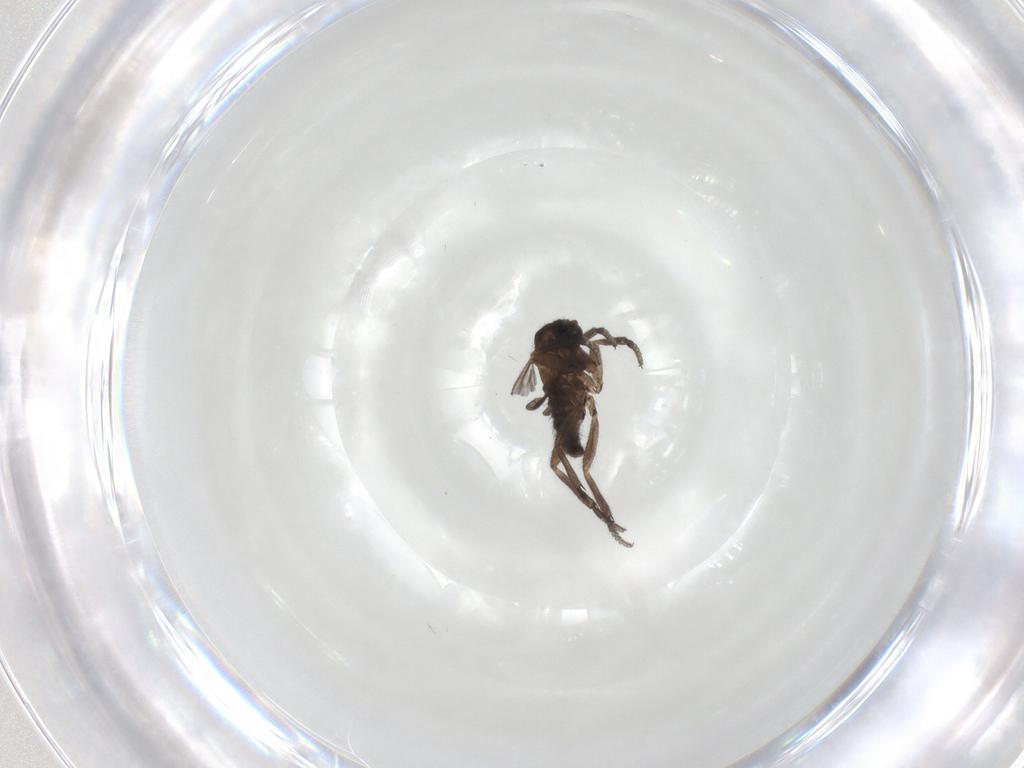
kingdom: Animalia
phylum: Arthropoda
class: Insecta
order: Diptera
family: Sciaridae
